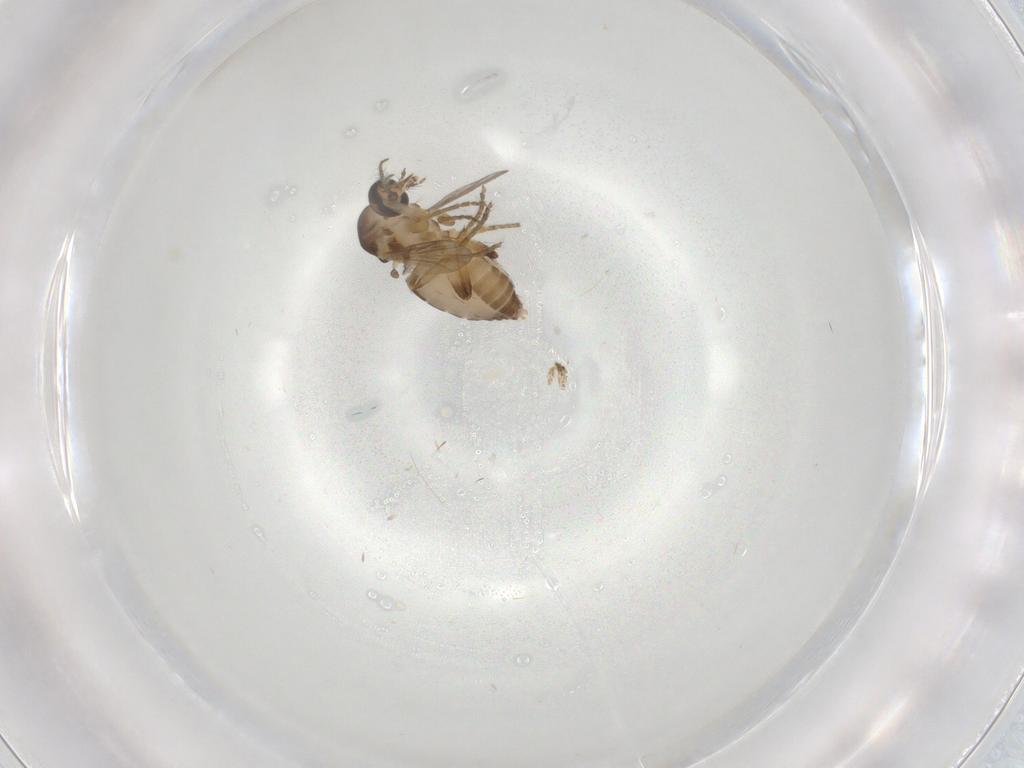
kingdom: Animalia
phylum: Arthropoda
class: Insecta
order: Diptera
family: Ceratopogonidae
